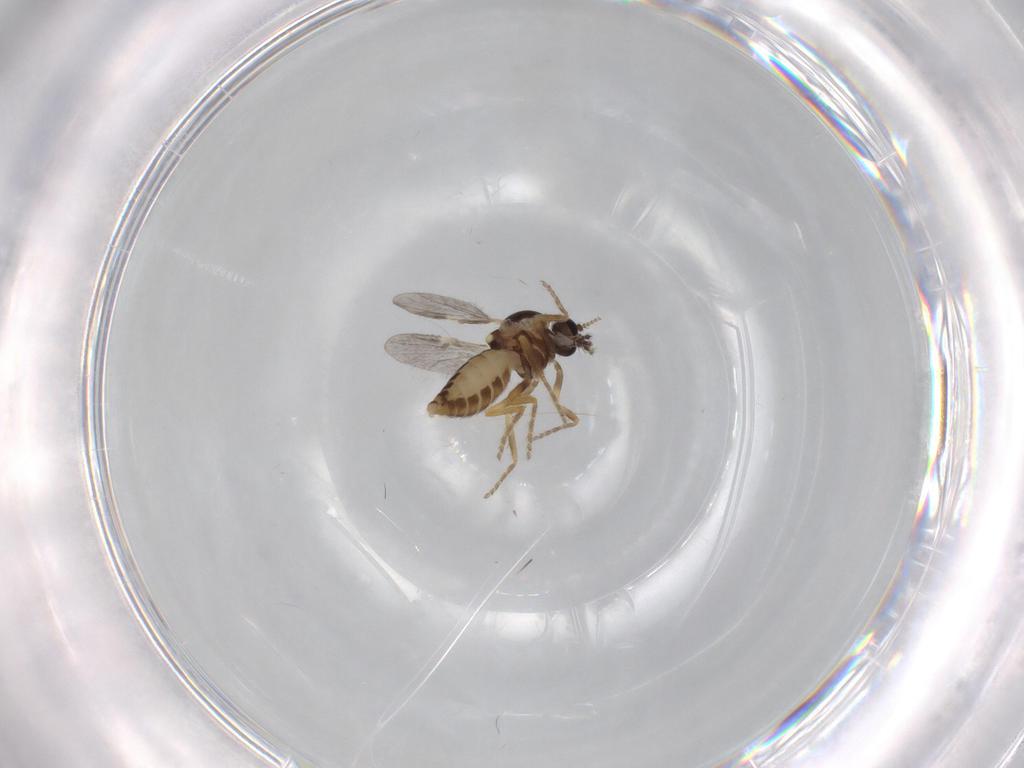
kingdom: Animalia
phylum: Arthropoda
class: Insecta
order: Diptera
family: Ceratopogonidae
